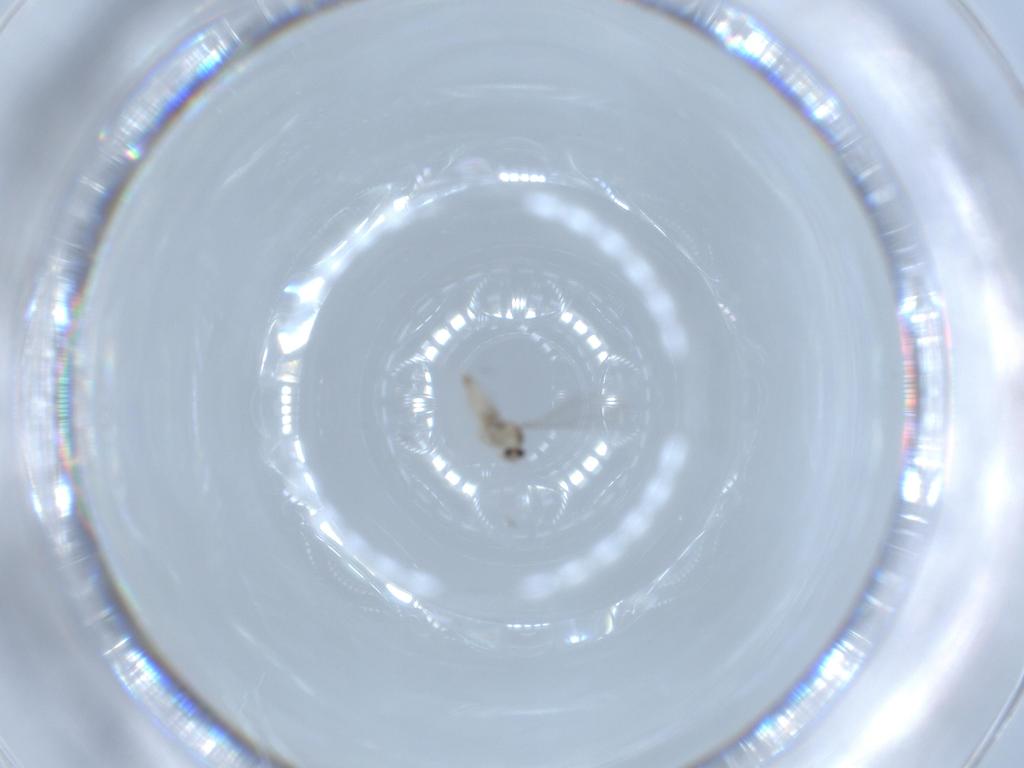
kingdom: Animalia
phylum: Arthropoda
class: Insecta
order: Diptera
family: Cecidomyiidae
